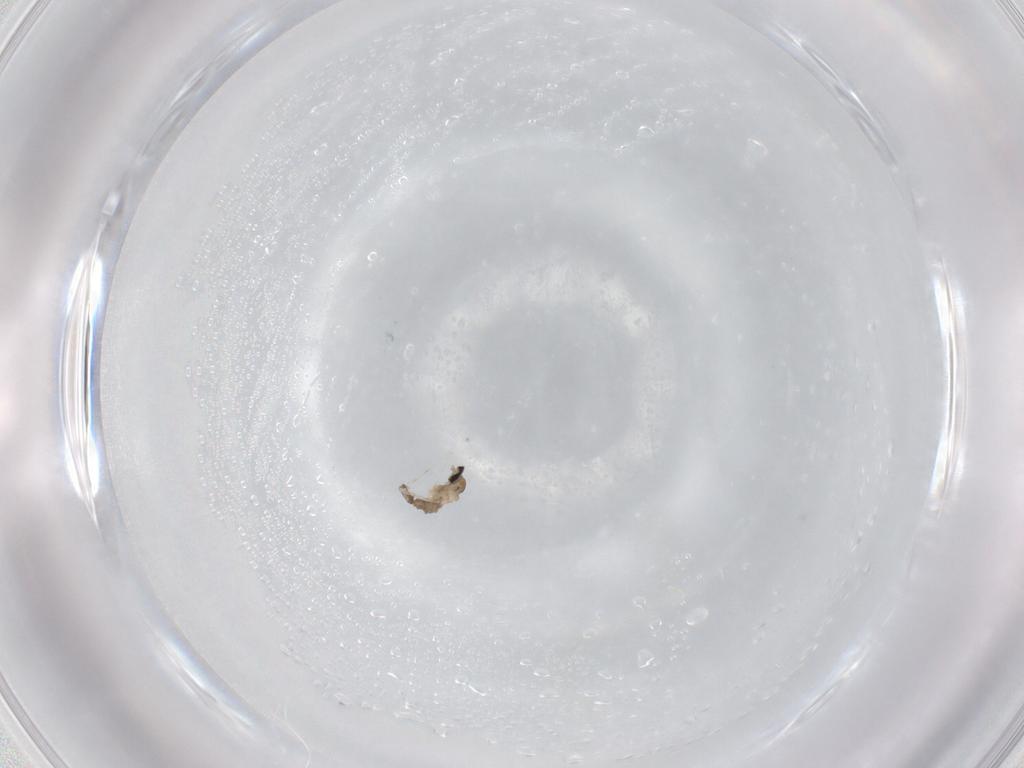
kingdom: Animalia
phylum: Arthropoda
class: Insecta
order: Diptera
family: Cecidomyiidae
